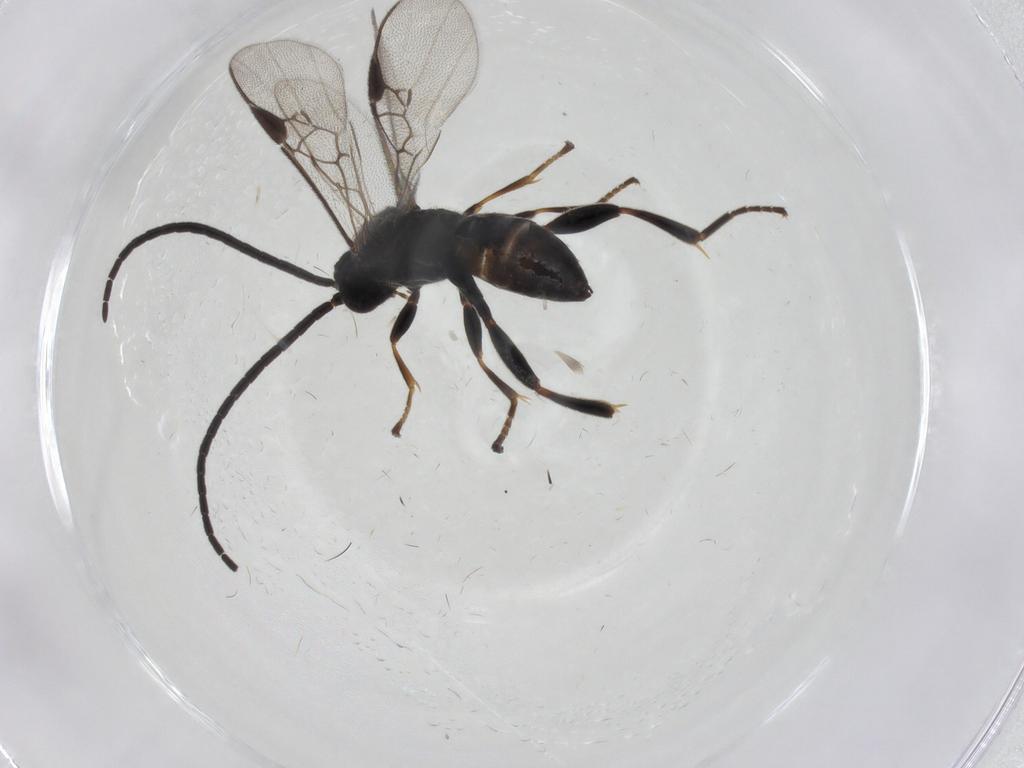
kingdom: Animalia
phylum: Arthropoda
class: Insecta
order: Hymenoptera
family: Braconidae
